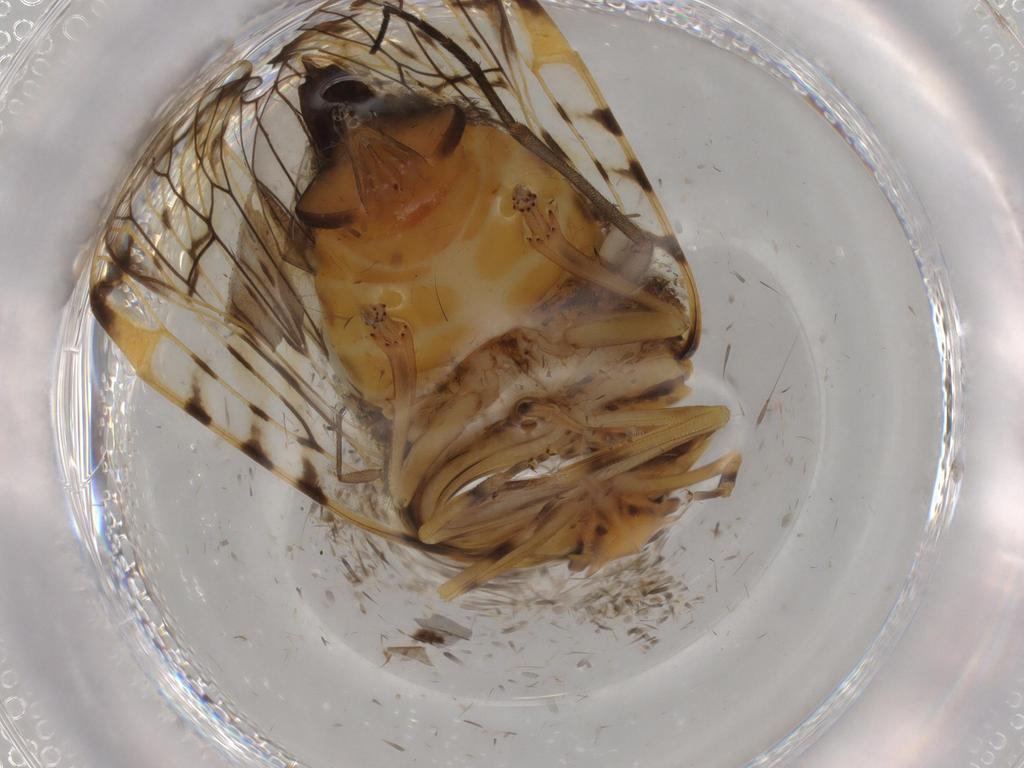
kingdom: Animalia
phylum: Arthropoda
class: Insecta
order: Hemiptera
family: Cixiidae
